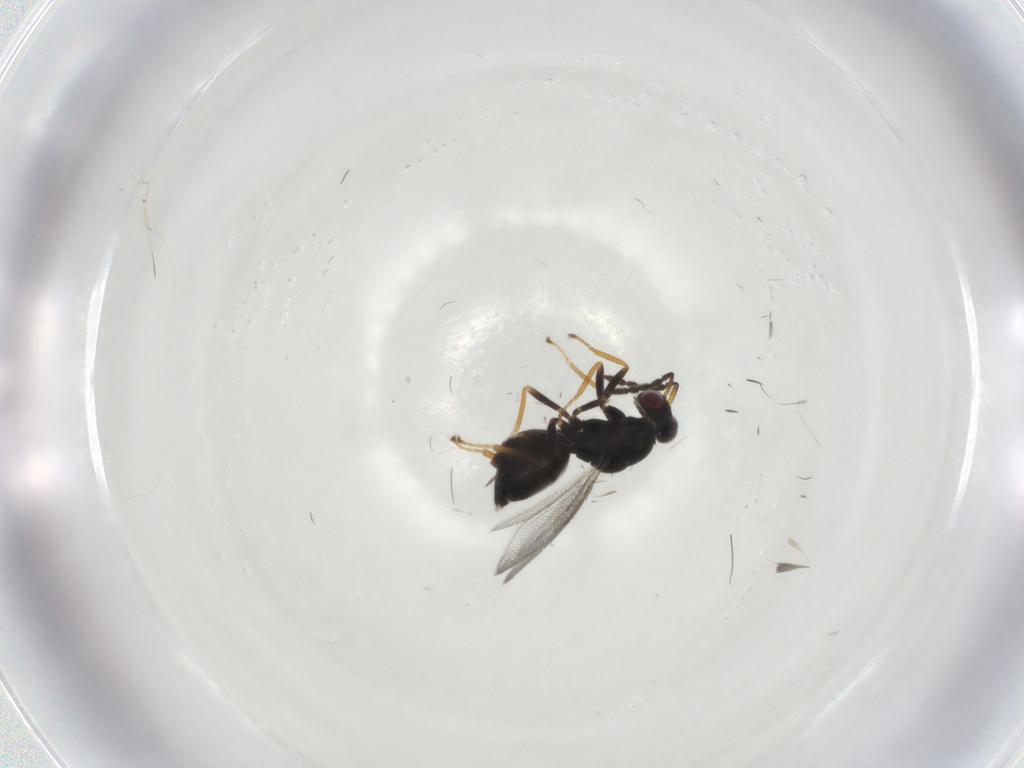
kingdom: Animalia
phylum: Arthropoda
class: Insecta
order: Hymenoptera
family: Eulophidae
